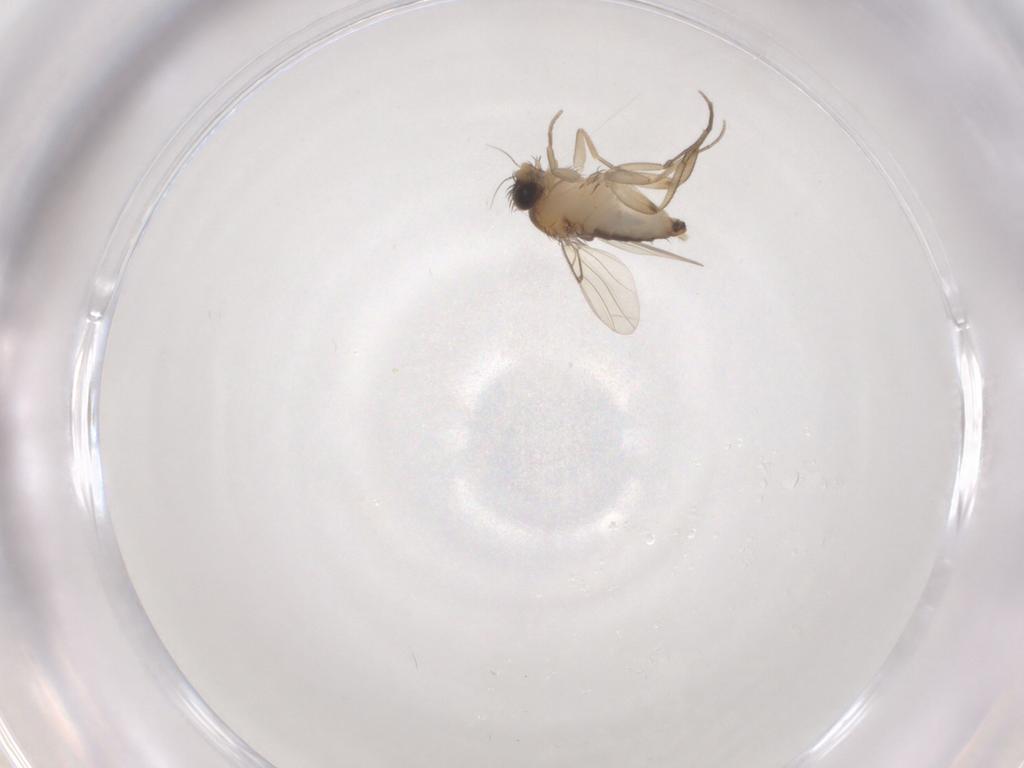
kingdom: Animalia
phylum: Arthropoda
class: Insecta
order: Diptera
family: Phoridae
